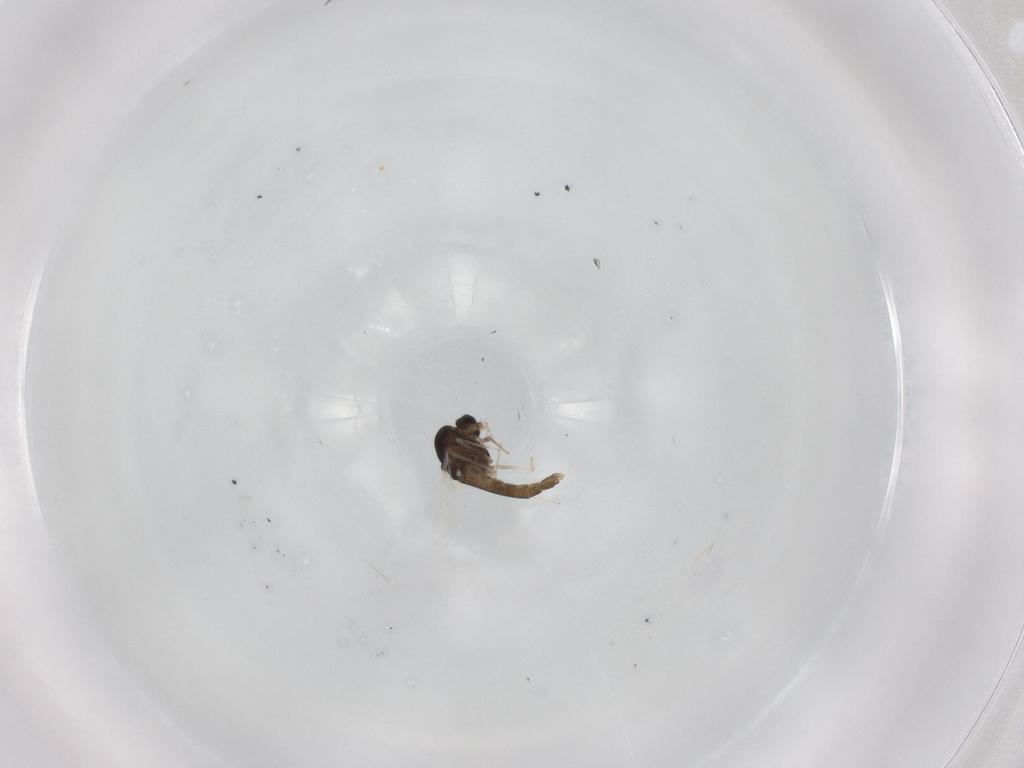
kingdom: Animalia
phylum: Arthropoda
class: Insecta
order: Diptera
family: Chironomidae
